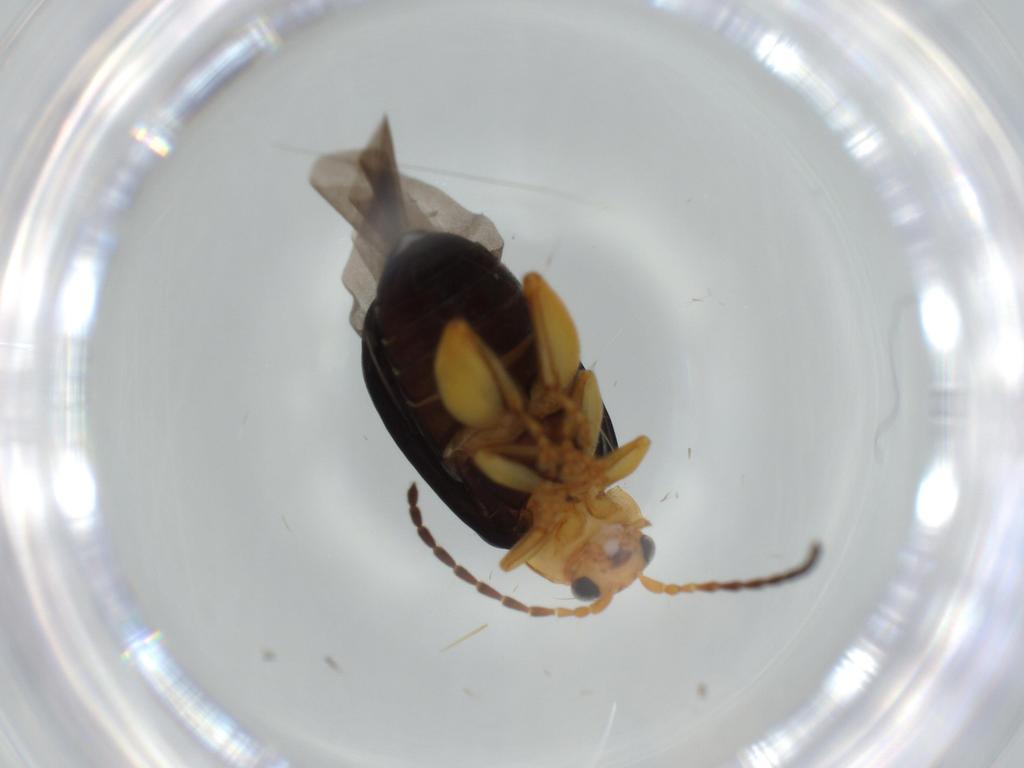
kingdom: Animalia
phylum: Arthropoda
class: Insecta
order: Coleoptera
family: Chrysomelidae
